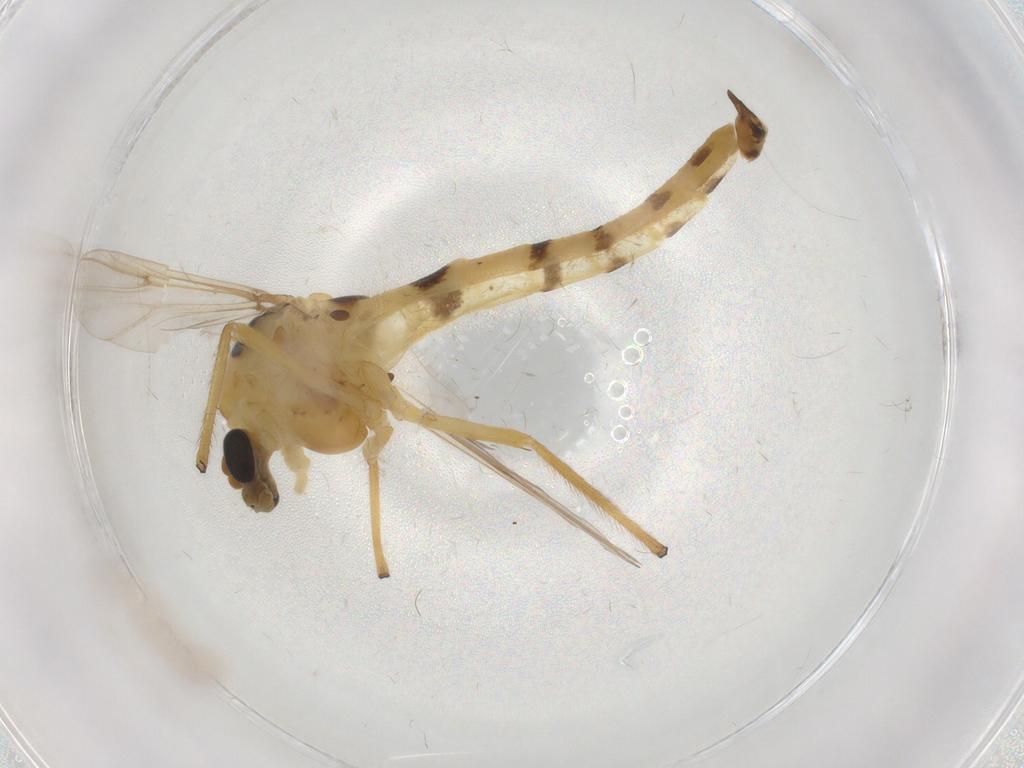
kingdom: Animalia
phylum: Arthropoda
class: Insecta
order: Diptera
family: Chironomidae
